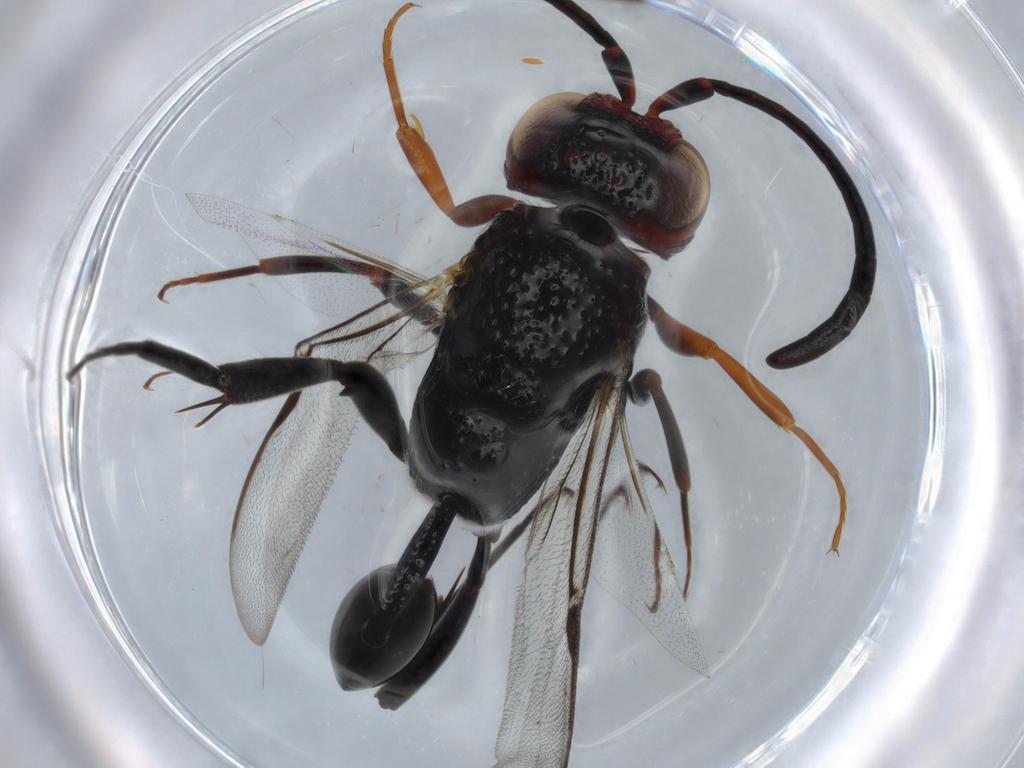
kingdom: Animalia
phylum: Arthropoda
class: Insecta
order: Hymenoptera
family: Evaniidae
